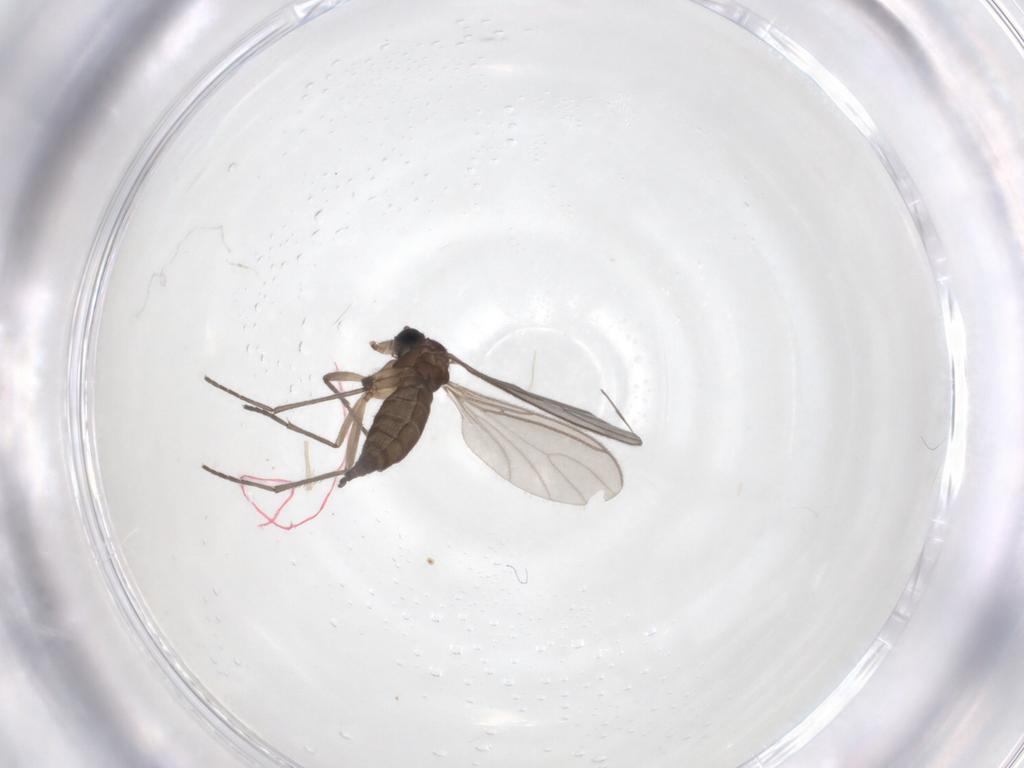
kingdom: Animalia
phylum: Arthropoda
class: Insecta
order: Diptera
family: Sciaridae
